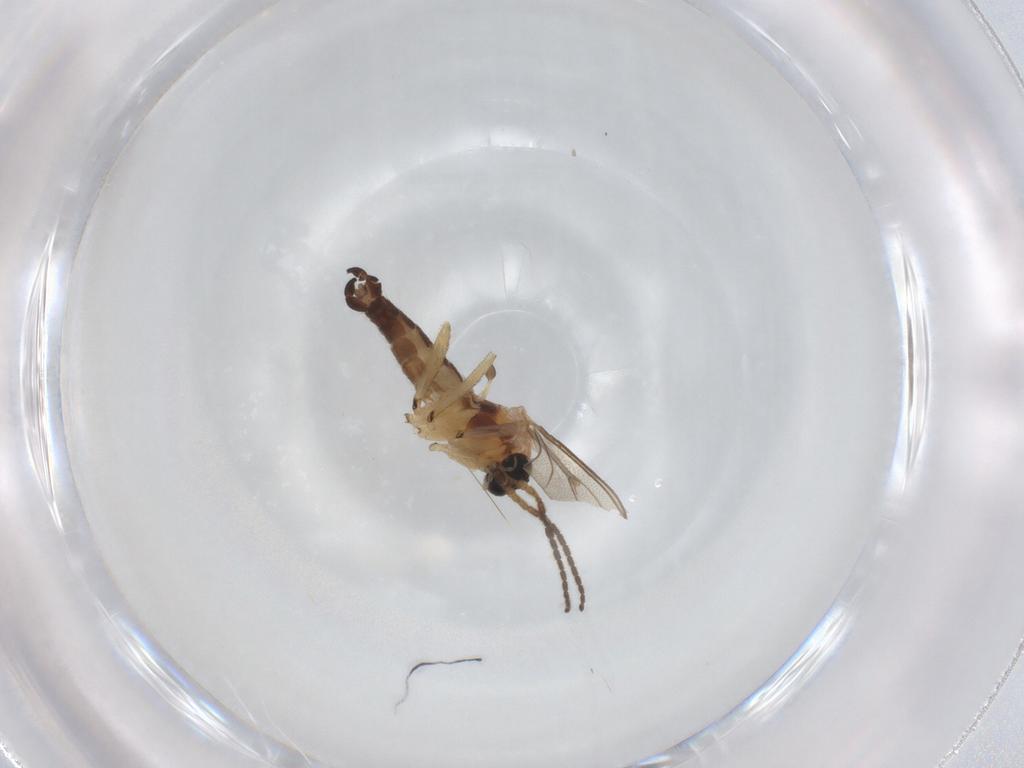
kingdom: Animalia
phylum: Arthropoda
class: Insecta
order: Diptera
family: Sciaridae
